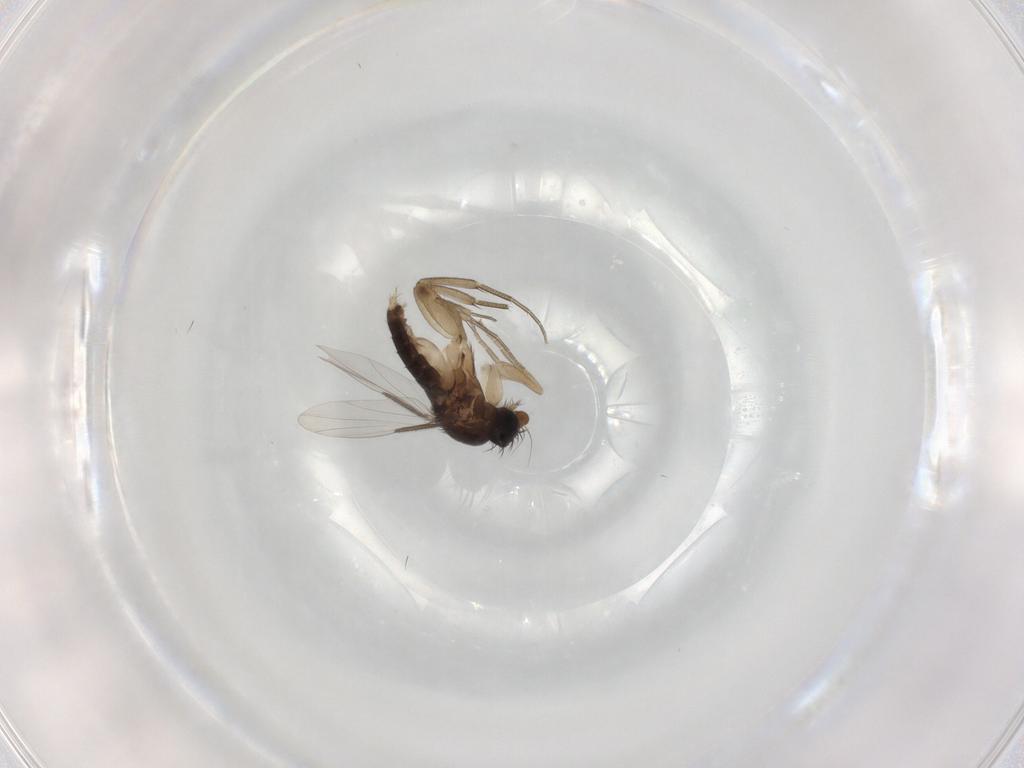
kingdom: Animalia
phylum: Arthropoda
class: Insecta
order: Diptera
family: Phoridae
